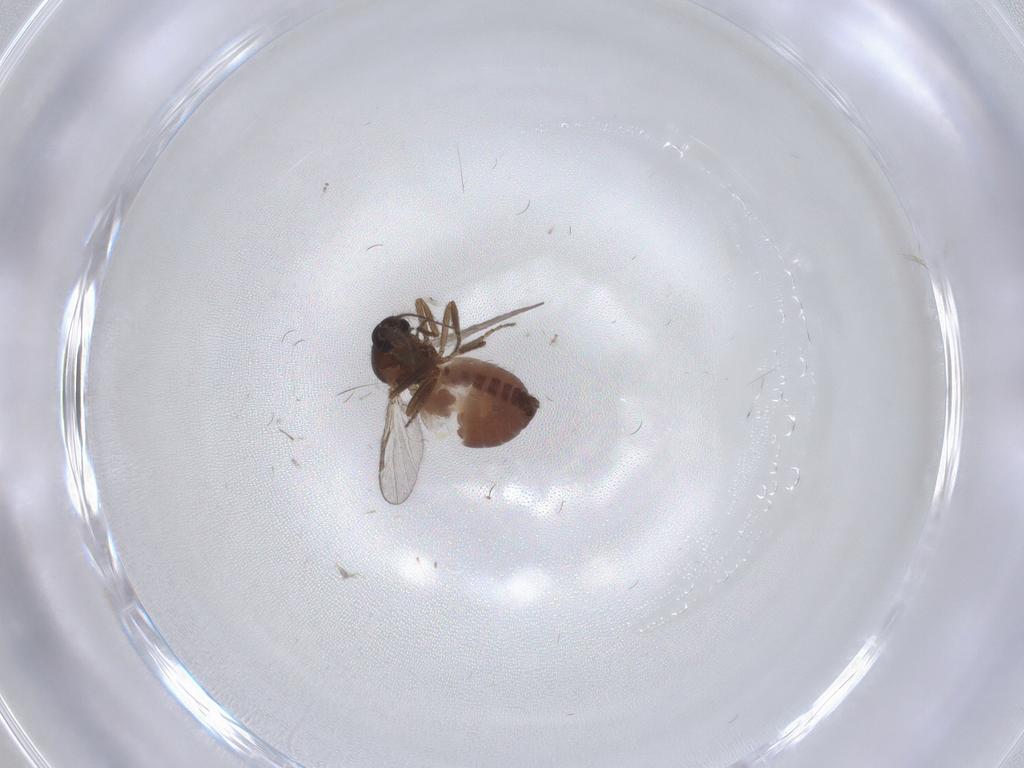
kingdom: Animalia
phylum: Arthropoda
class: Insecta
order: Diptera
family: Ceratopogonidae
